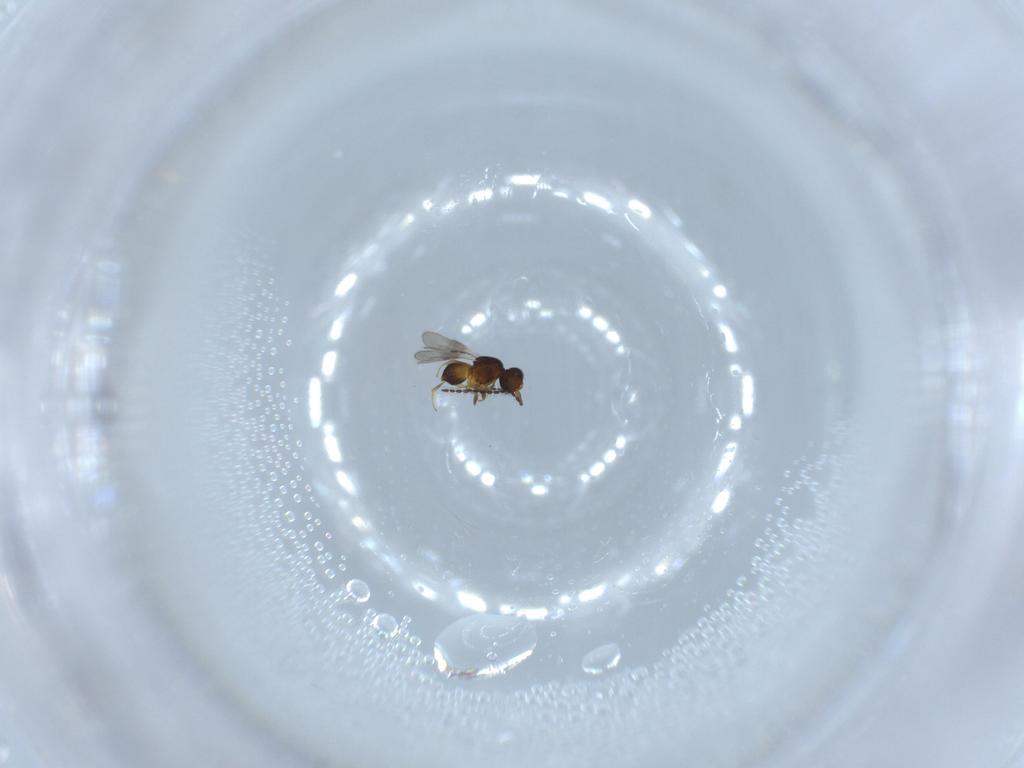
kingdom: Animalia
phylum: Arthropoda
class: Insecta
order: Hymenoptera
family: Ceraphronidae
